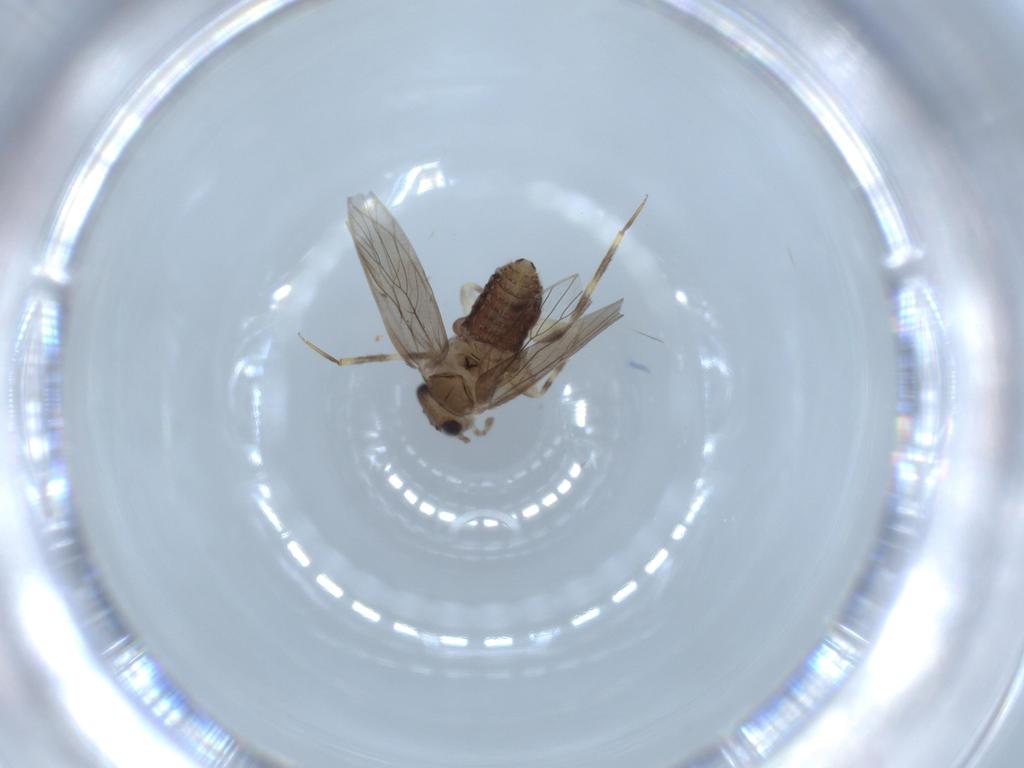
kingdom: Animalia
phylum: Arthropoda
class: Insecta
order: Psocodea
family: Lepidopsocidae
